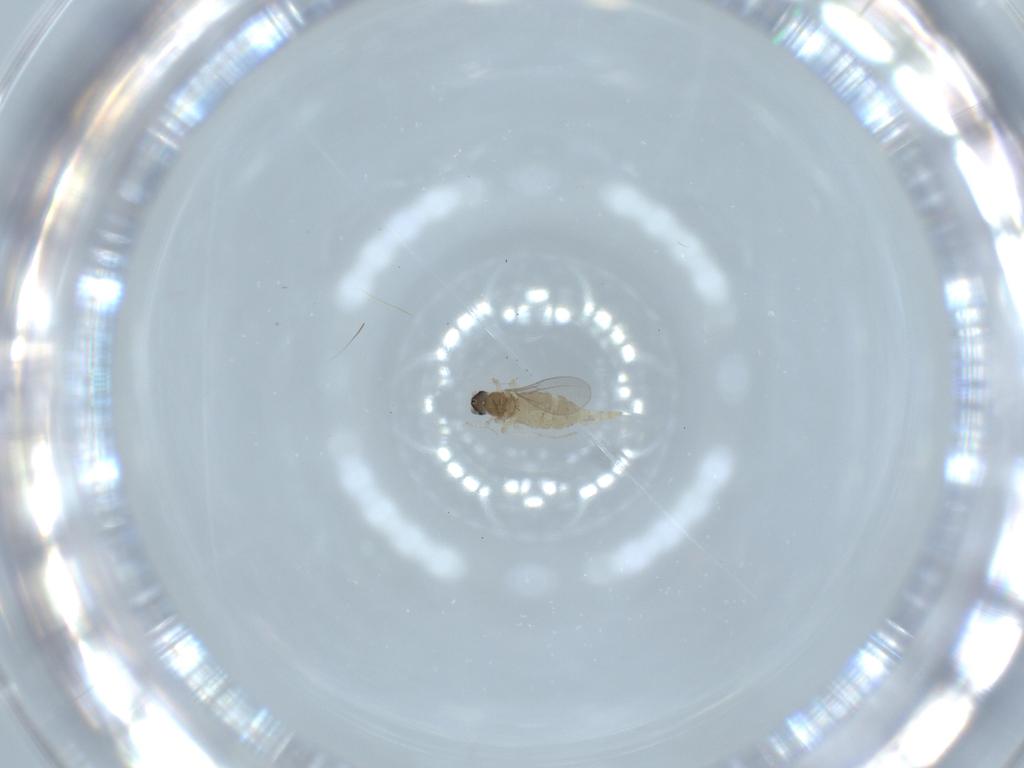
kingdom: Animalia
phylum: Arthropoda
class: Insecta
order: Diptera
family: Cecidomyiidae
